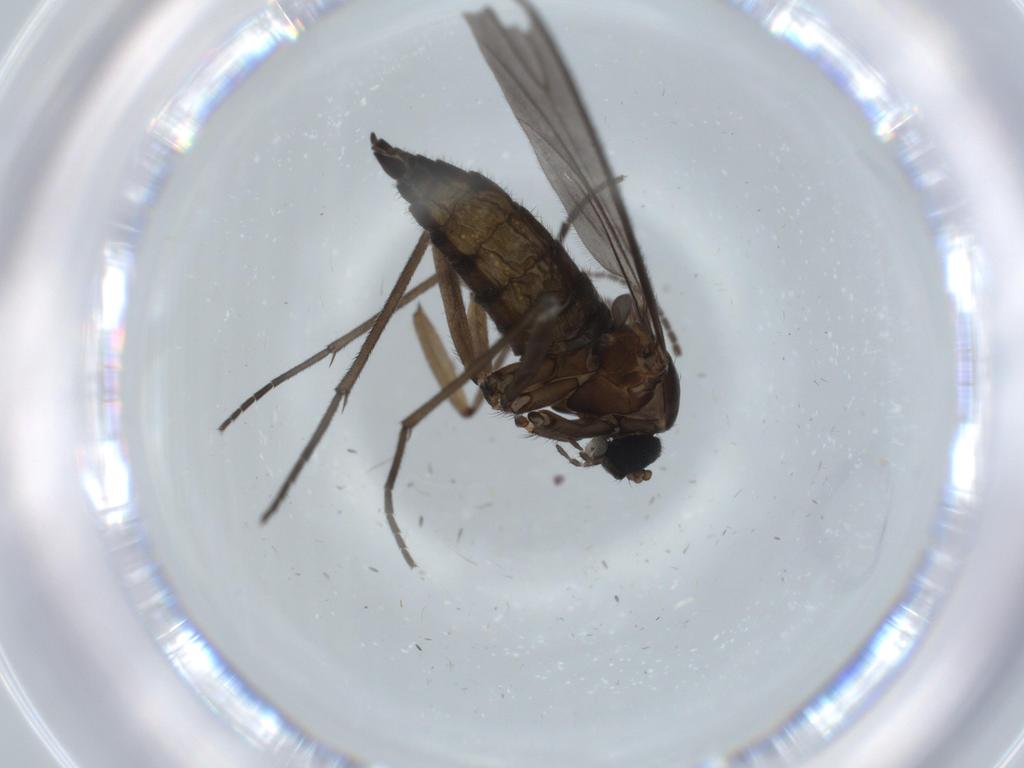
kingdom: Animalia
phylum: Arthropoda
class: Insecta
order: Diptera
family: Sciaridae
